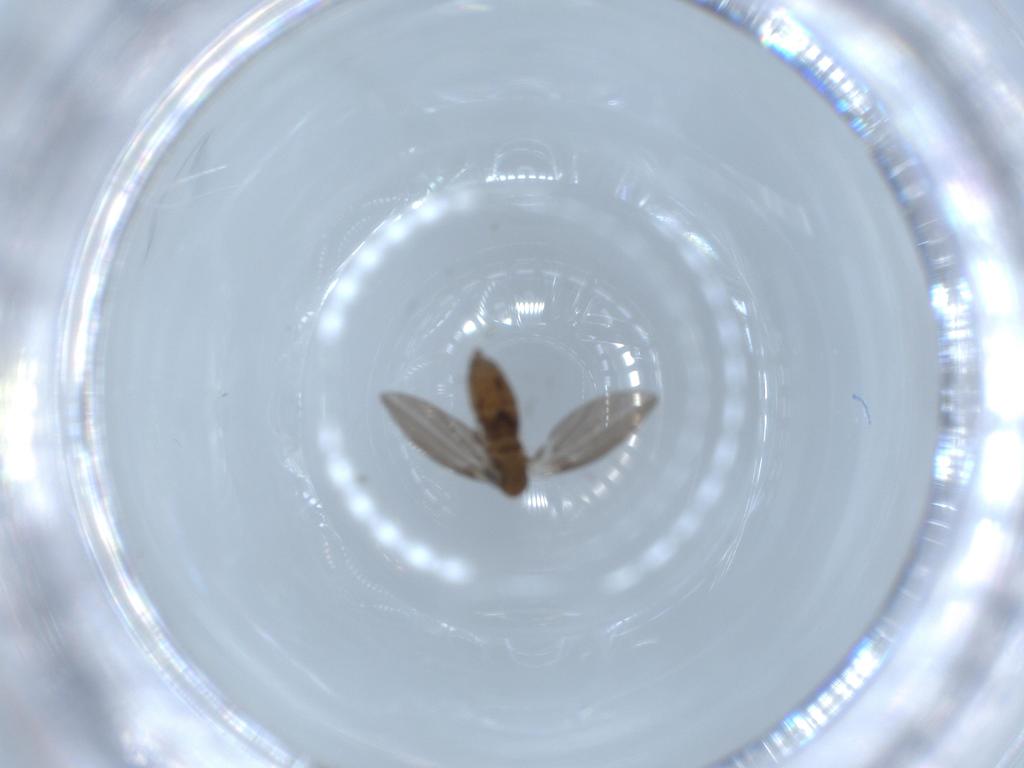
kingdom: Animalia
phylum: Arthropoda
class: Insecta
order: Diptera
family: Psychodidae
